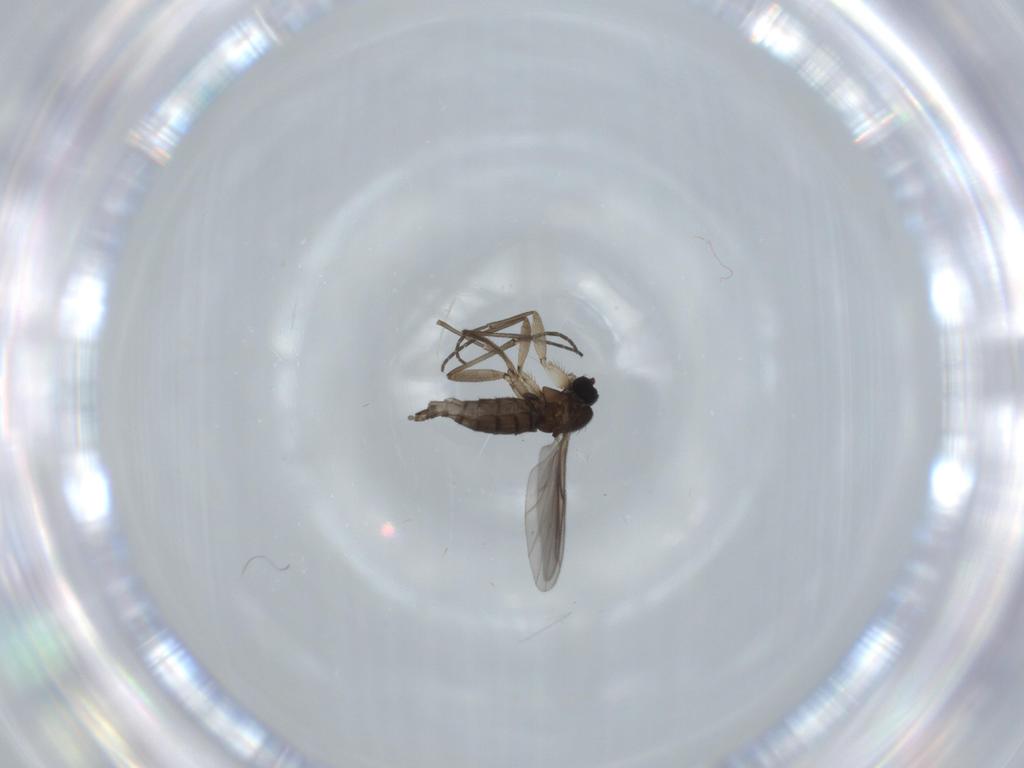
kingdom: Animalia
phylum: Arthropoda
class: Insecta
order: Diptera
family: Sciaridae
